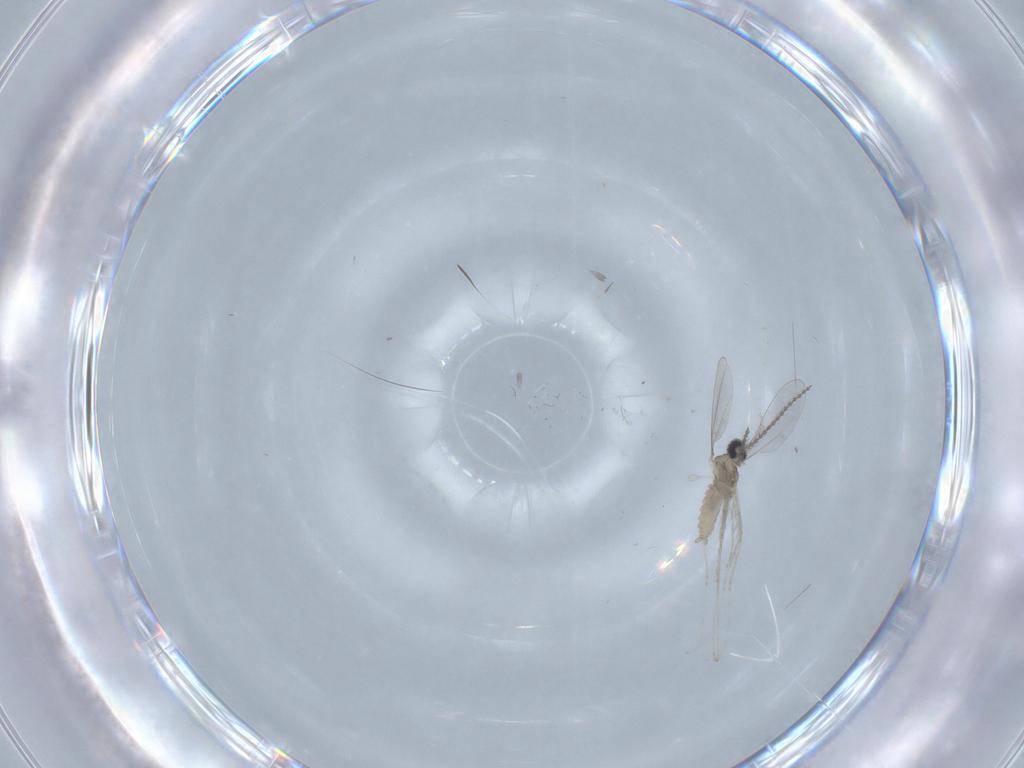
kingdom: Animalia
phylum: Arthropoda
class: Insecta
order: Diptera
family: Cecidomyiidae
